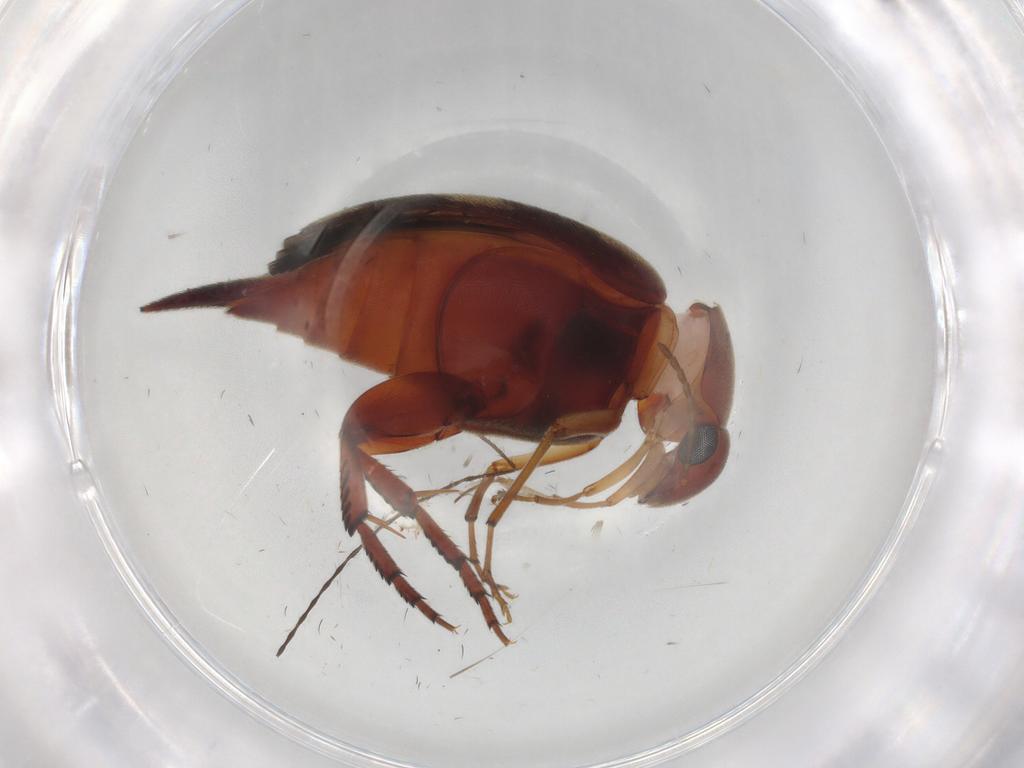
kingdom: Animalia
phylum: Arthropoda
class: Insecta
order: Coleoptera
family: Mordellidae
